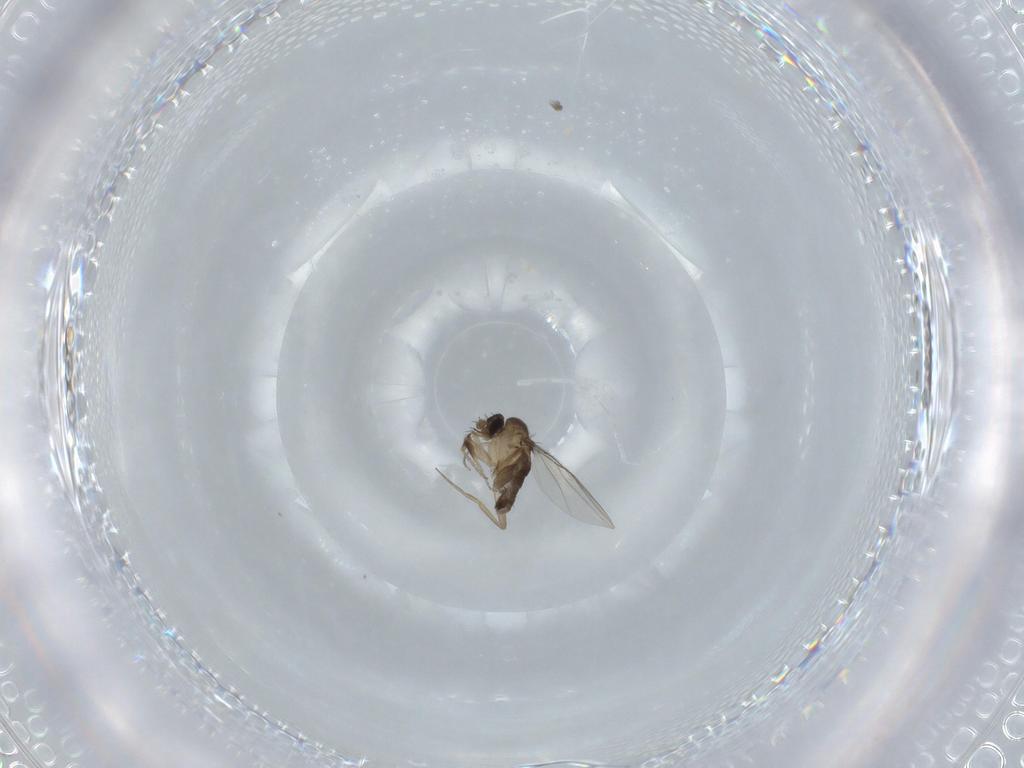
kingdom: Animalia
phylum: Arthropoda
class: Insecta
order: Diptera
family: Phoridae
